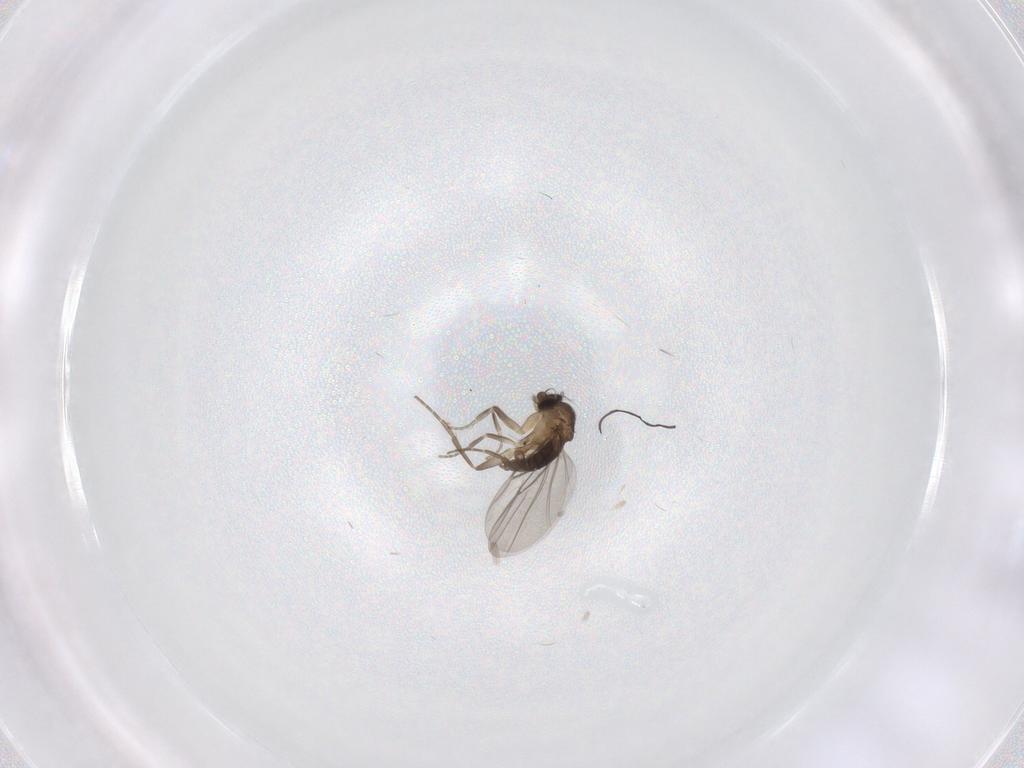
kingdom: Animalia
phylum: Arthropoda
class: Insecta
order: Diptera
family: Phoridae
